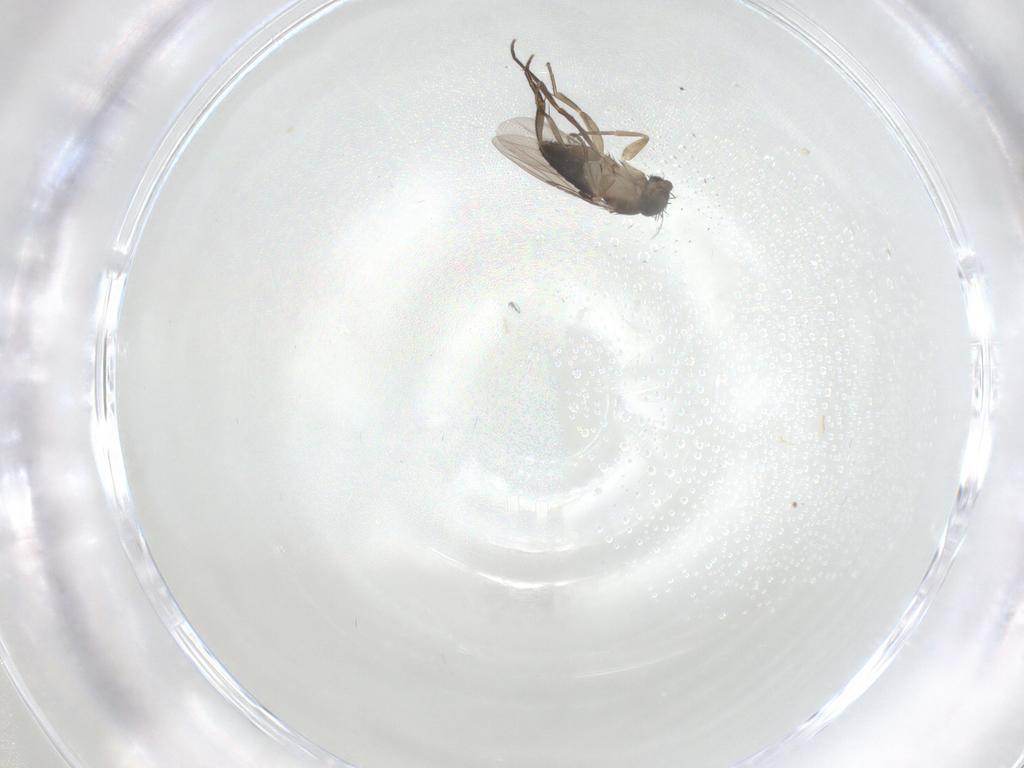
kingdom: Animalia
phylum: Arthropoda
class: Insecta
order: Diptera
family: Phoridae
